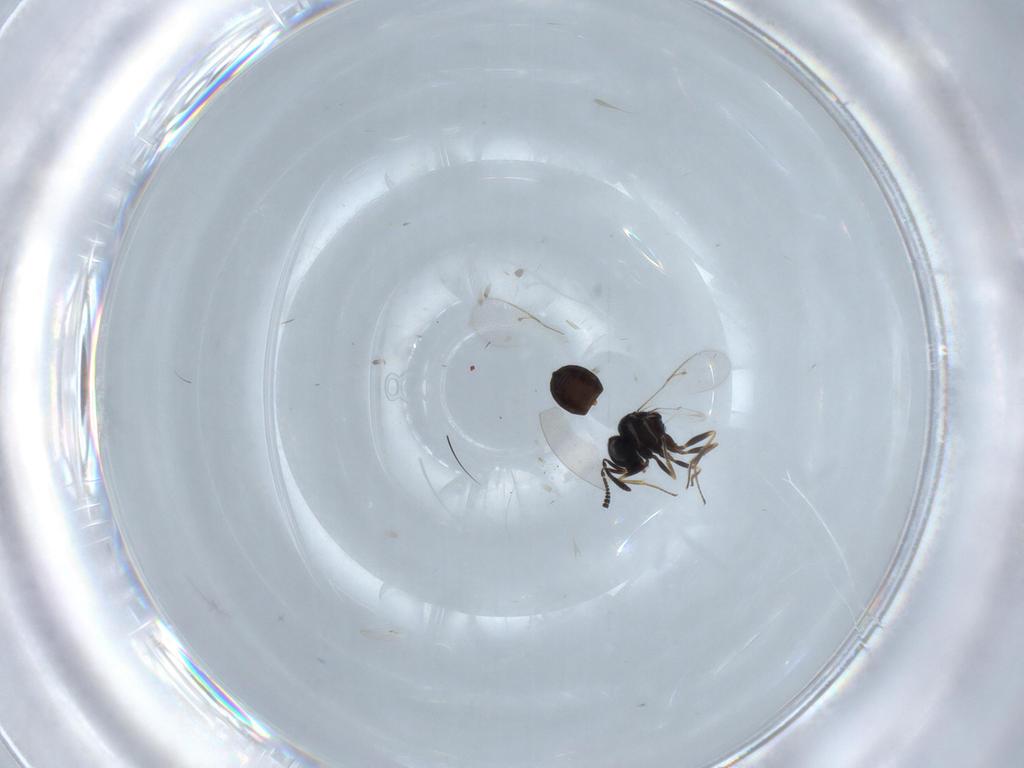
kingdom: Animalia
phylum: Arthropoda
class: Insecta
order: Hymenoptera
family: Vespidae
